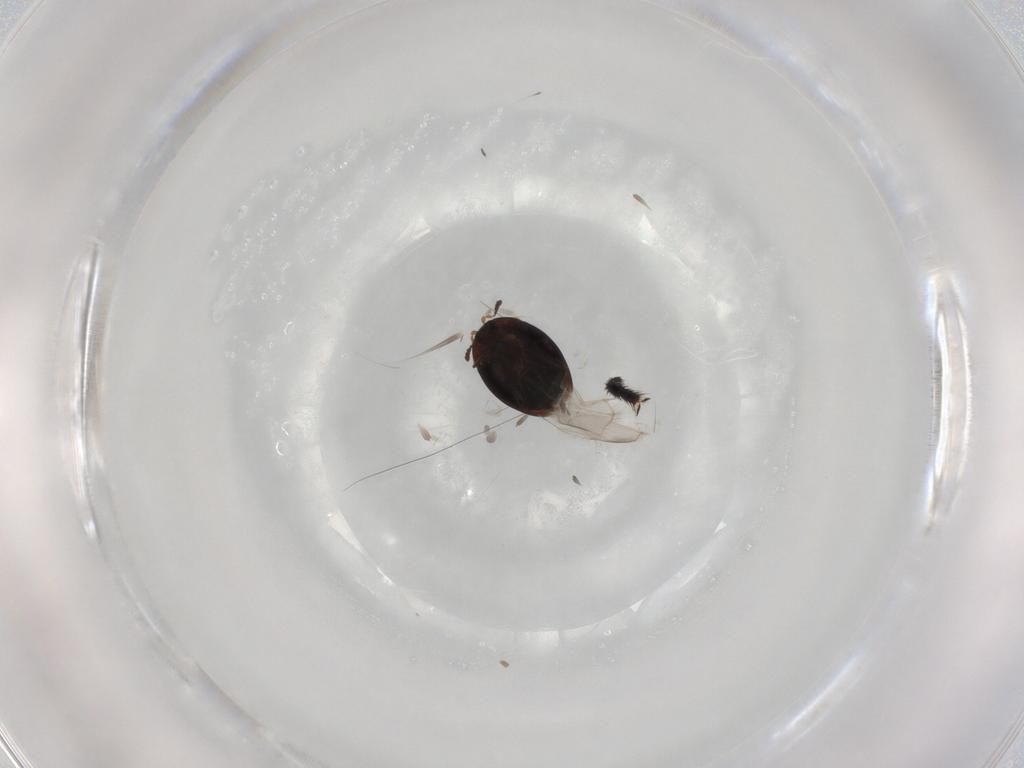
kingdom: Animalia
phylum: Arthropoda
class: Insecta
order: Coleoptera
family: Corylophidae
